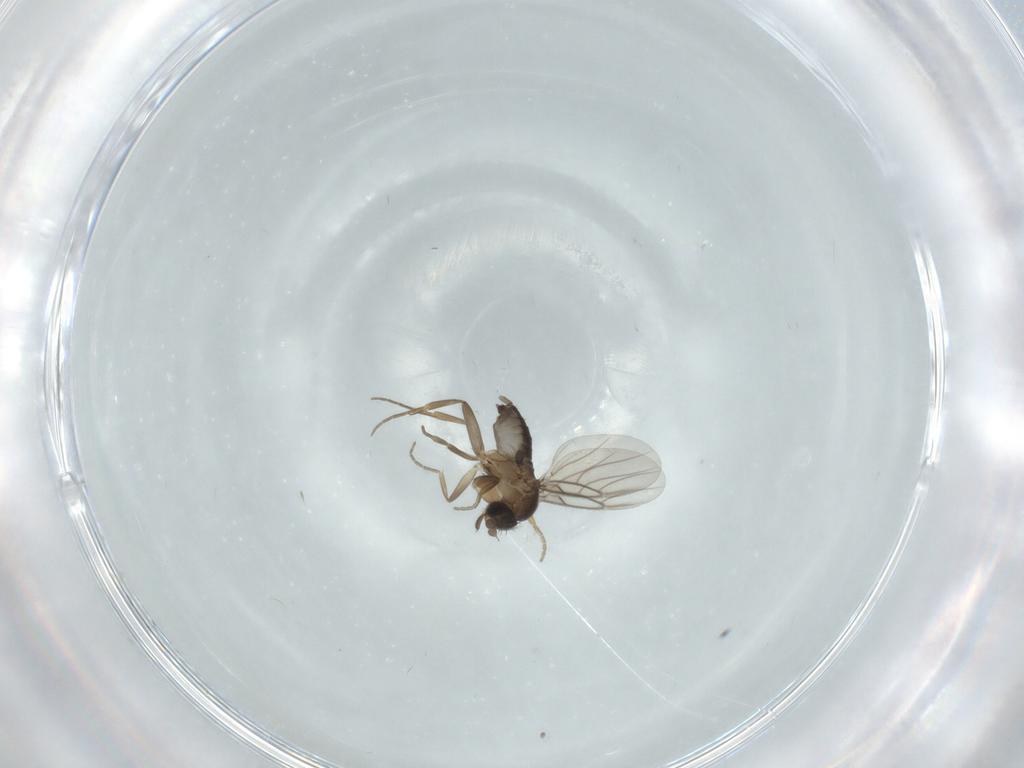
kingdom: Animalia
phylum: Arthropoda
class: Insecta
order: Diptera
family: Phoridae
